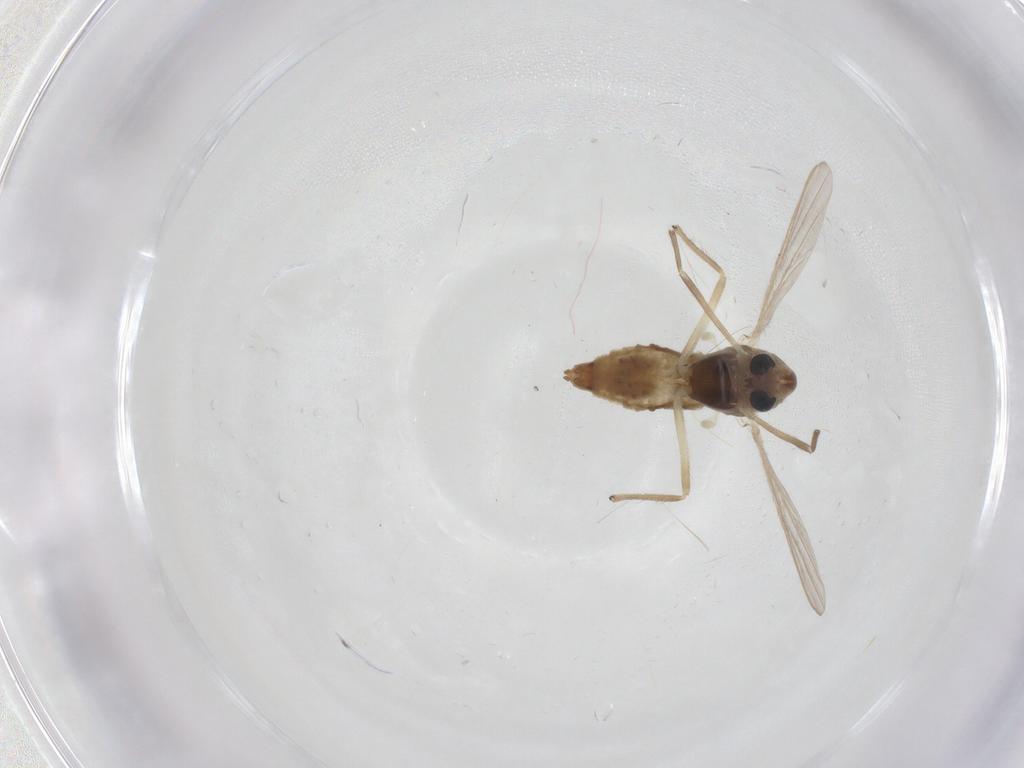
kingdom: Animalia
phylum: Arthropoda
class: Insecta
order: Diptera
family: Chironomidae
